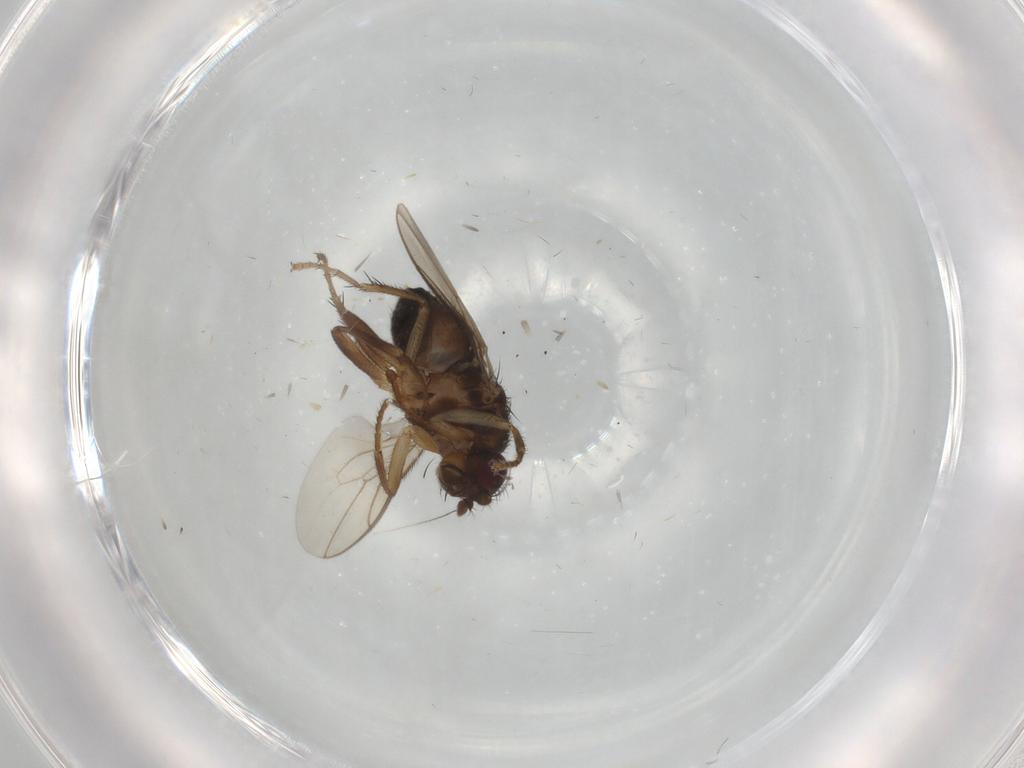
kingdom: Animalia
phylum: Arthropoda
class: Insecta
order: Diptera
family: Sphaeroceridae
